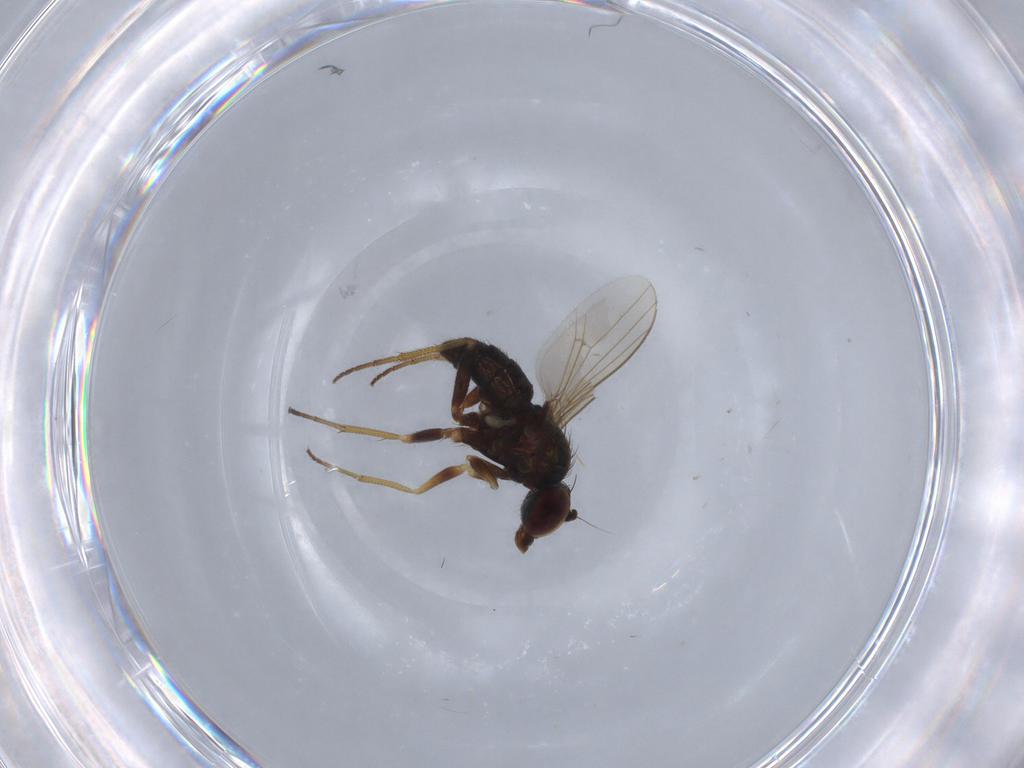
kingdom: Animalia
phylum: Arthropoda
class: Insecta
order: Diptera
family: Dolichopodidae
